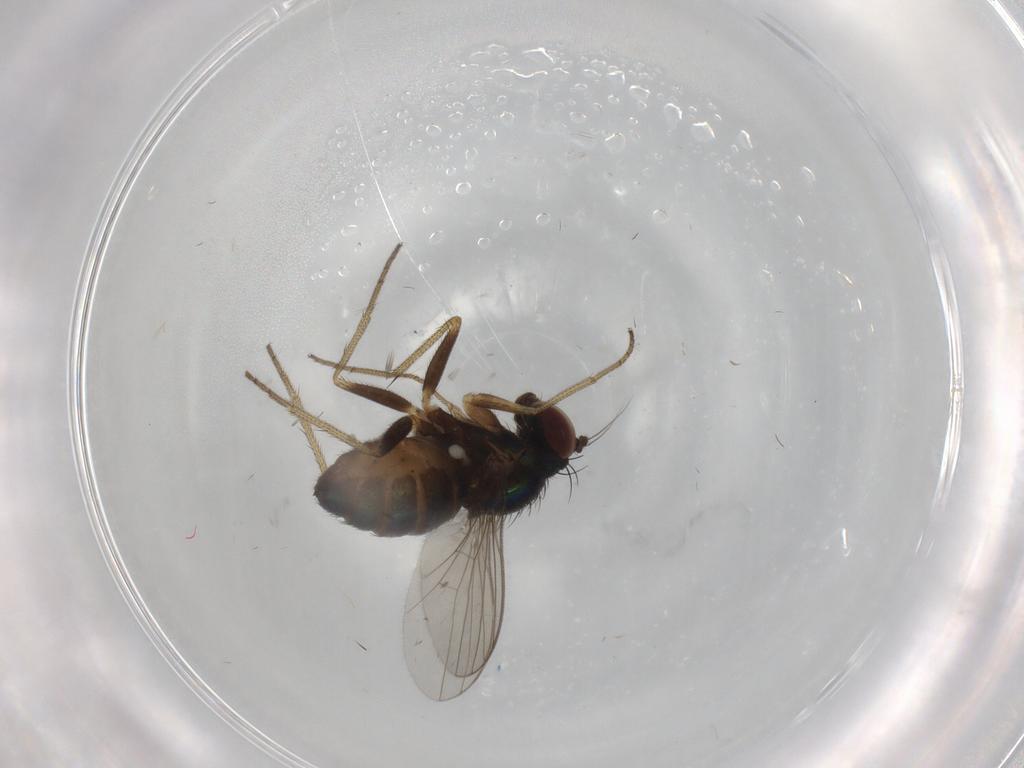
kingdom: Animalia
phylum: Arthropoda
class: Insecta
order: Diptera
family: Dolichopodidae
